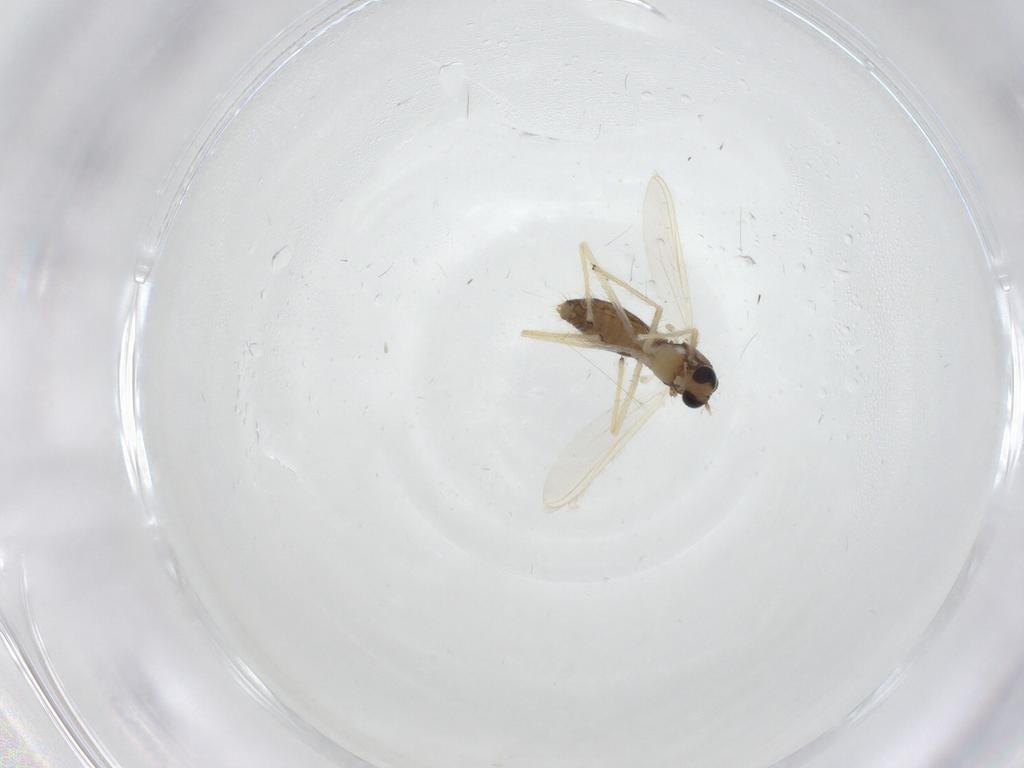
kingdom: Animalia
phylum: Arthropoda
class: Insecta
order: Diptera
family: Chironomidae
